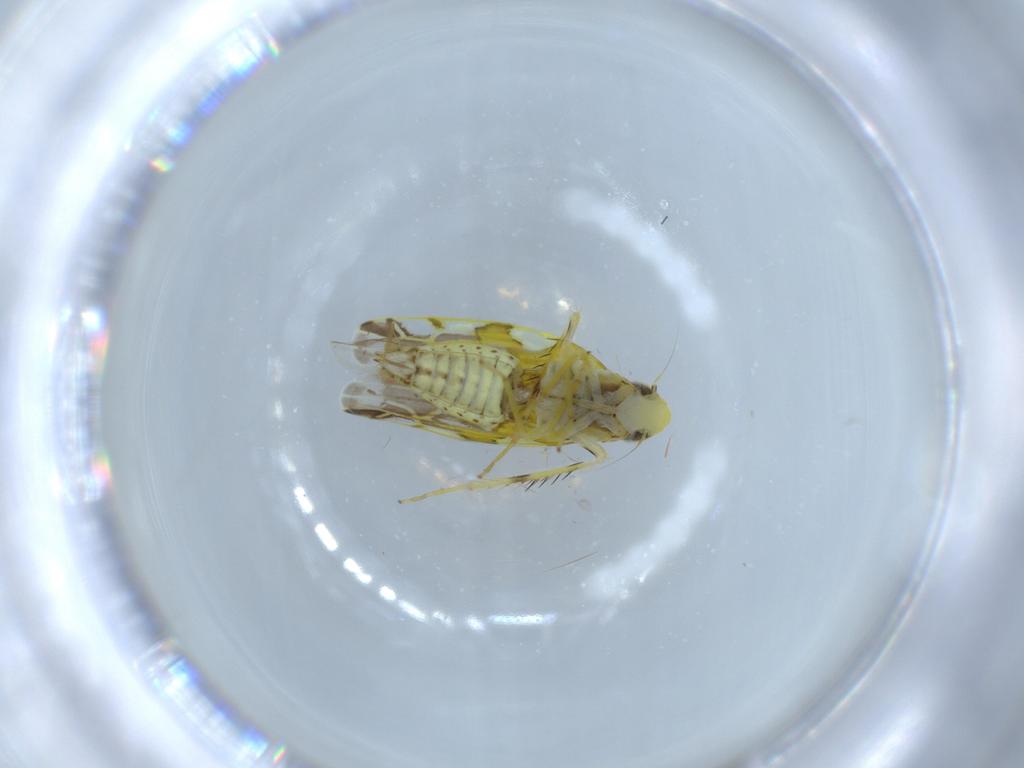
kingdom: Animalia
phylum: Arthropoda
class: Insecta
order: Hemiptera
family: Cicadellidae
